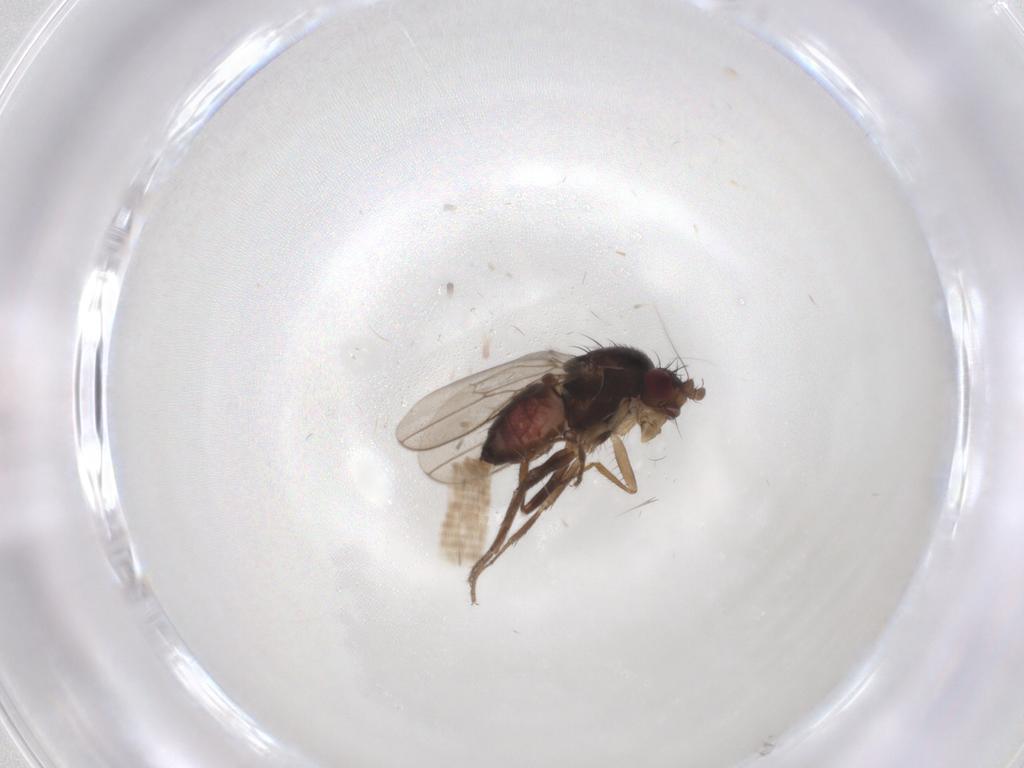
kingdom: Animalia
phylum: Arthropoda
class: Insecta
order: Diptera
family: Sphaeroceridae
